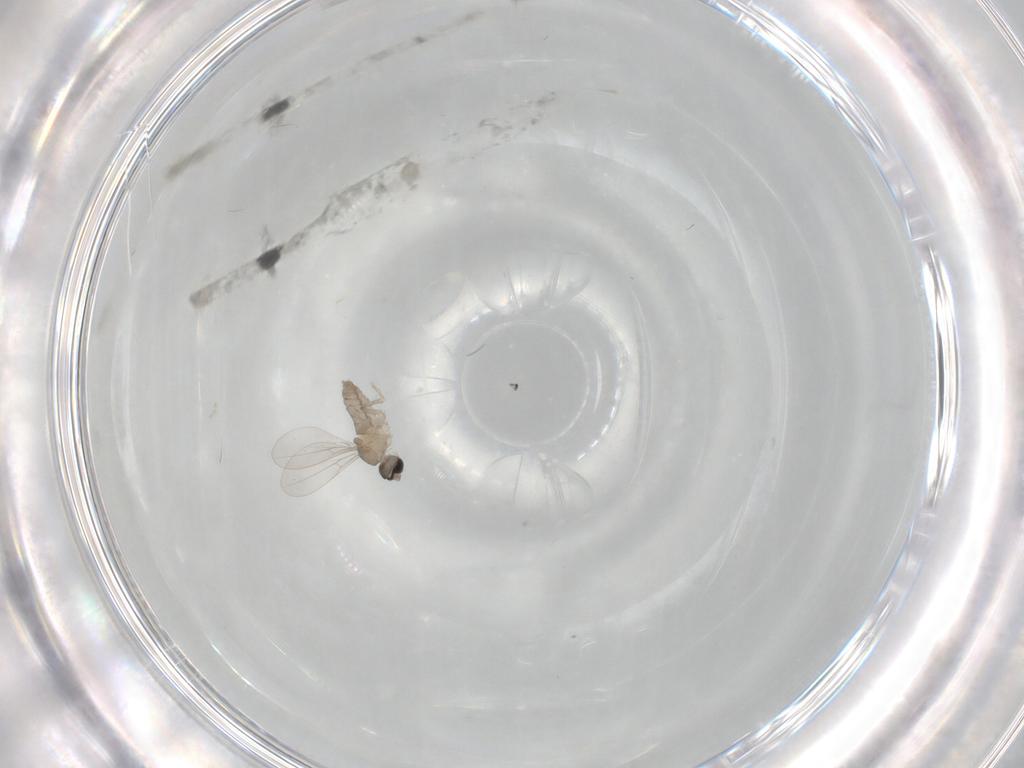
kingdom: Animalia
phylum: Arthropoda
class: Insecta
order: Diptera
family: Cecidomyiidae
